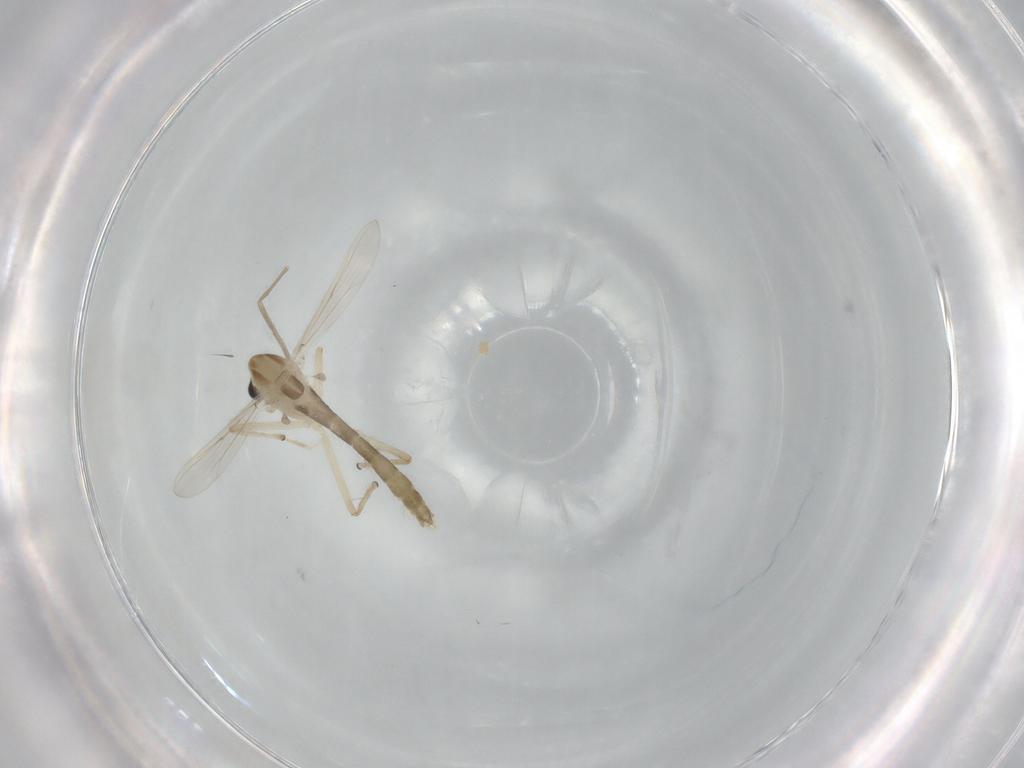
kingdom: Animalia
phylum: Arthropoda
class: Insecta
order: Diptera
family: Chironomidae
